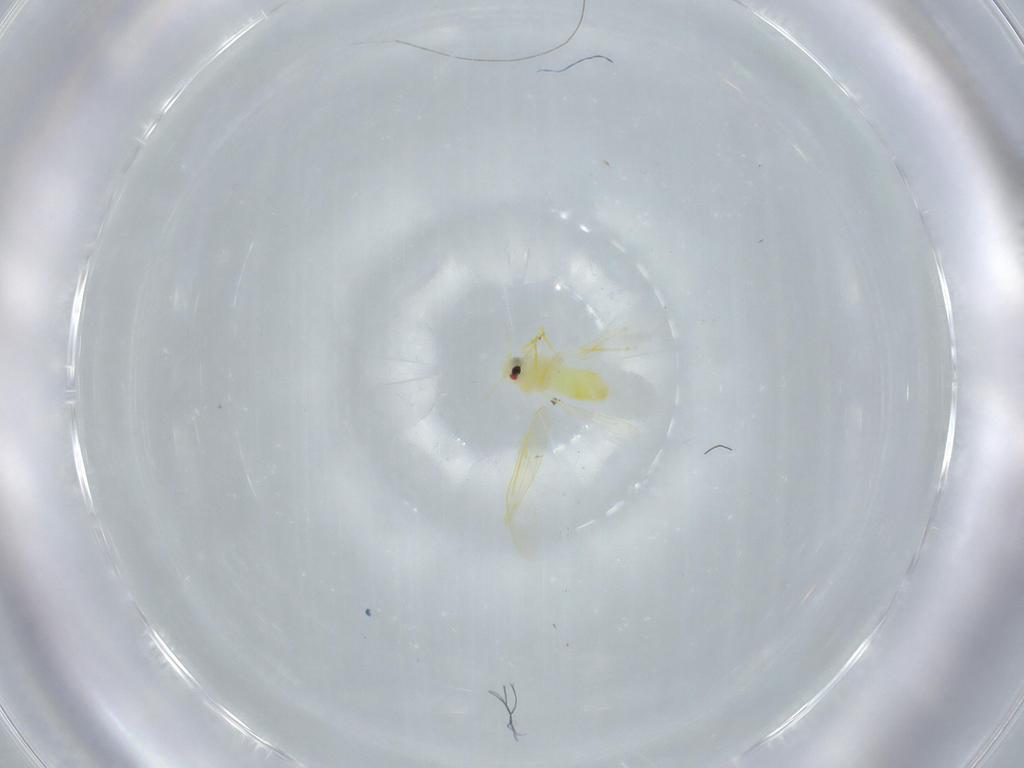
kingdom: Animalia
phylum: Arthropoda
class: Insecta
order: Hemiptera
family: Aleyrodidae
